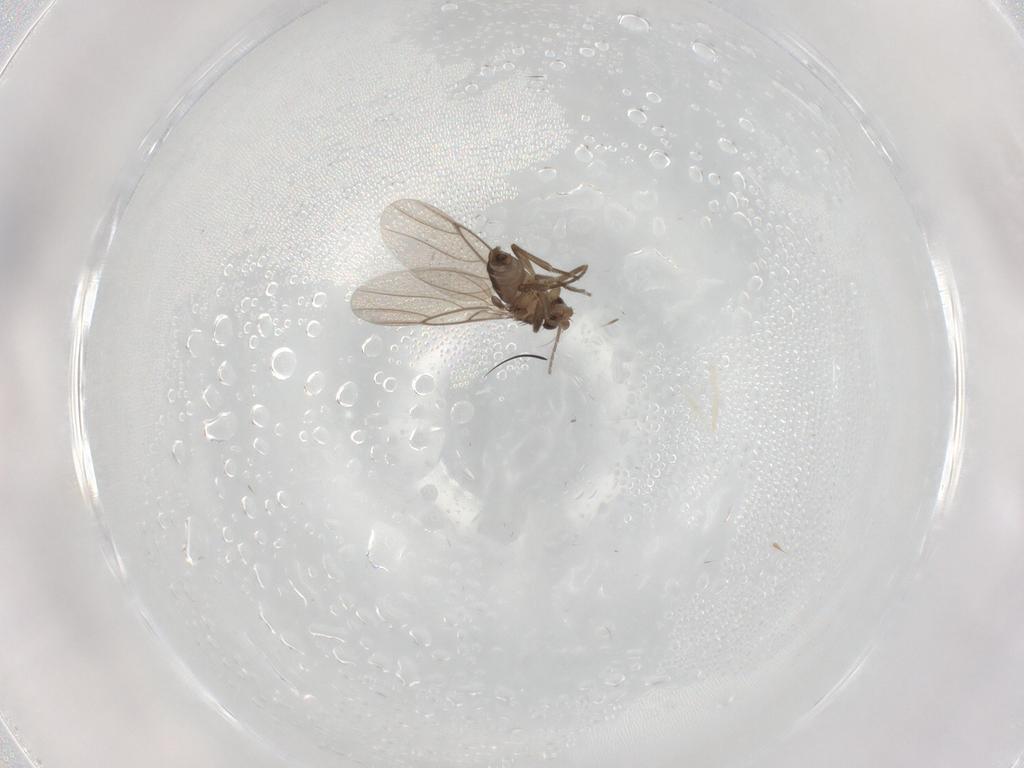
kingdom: Animalia
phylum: Arthropoda
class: Insecta
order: Diptera
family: Phoridae
